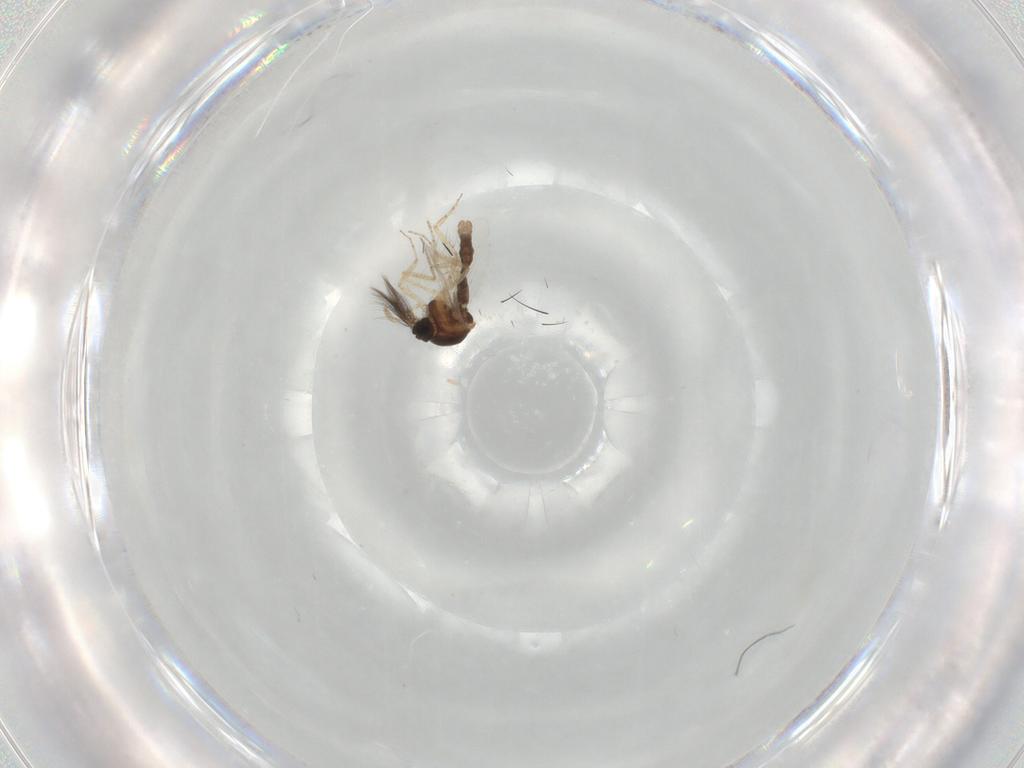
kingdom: Animalia
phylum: Arthropoda
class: Insecta
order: Diptera
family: Ceratopogonidae
